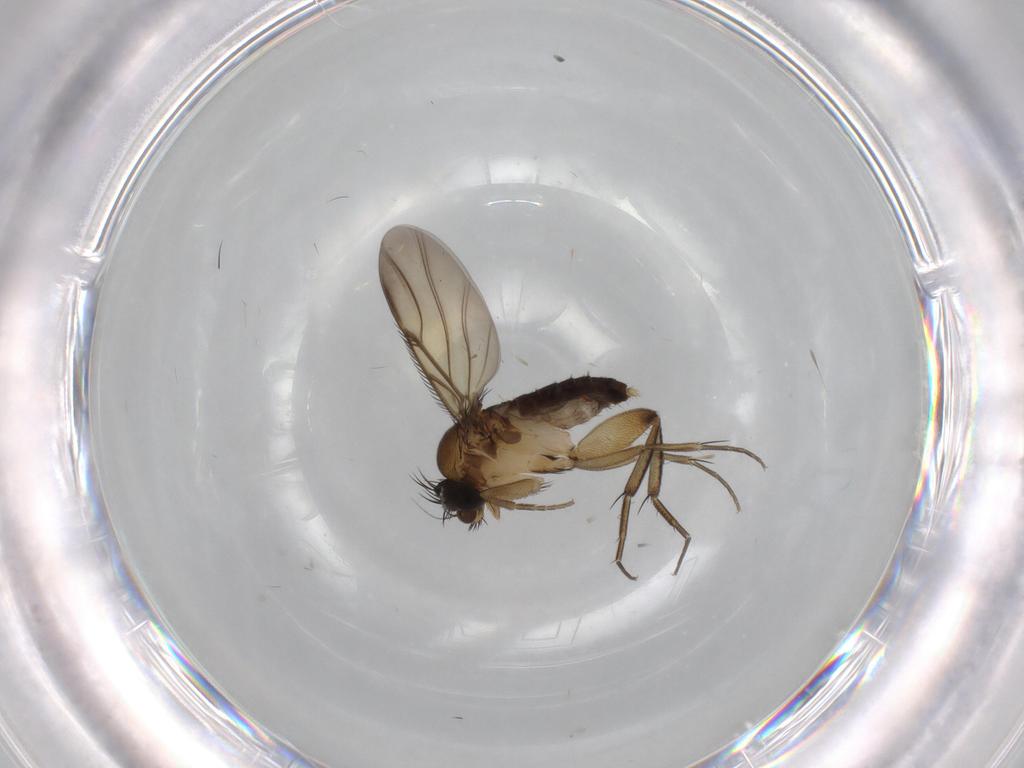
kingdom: Animalia
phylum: Arthropoda
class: Insecta
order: Diptera
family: Phoridae
